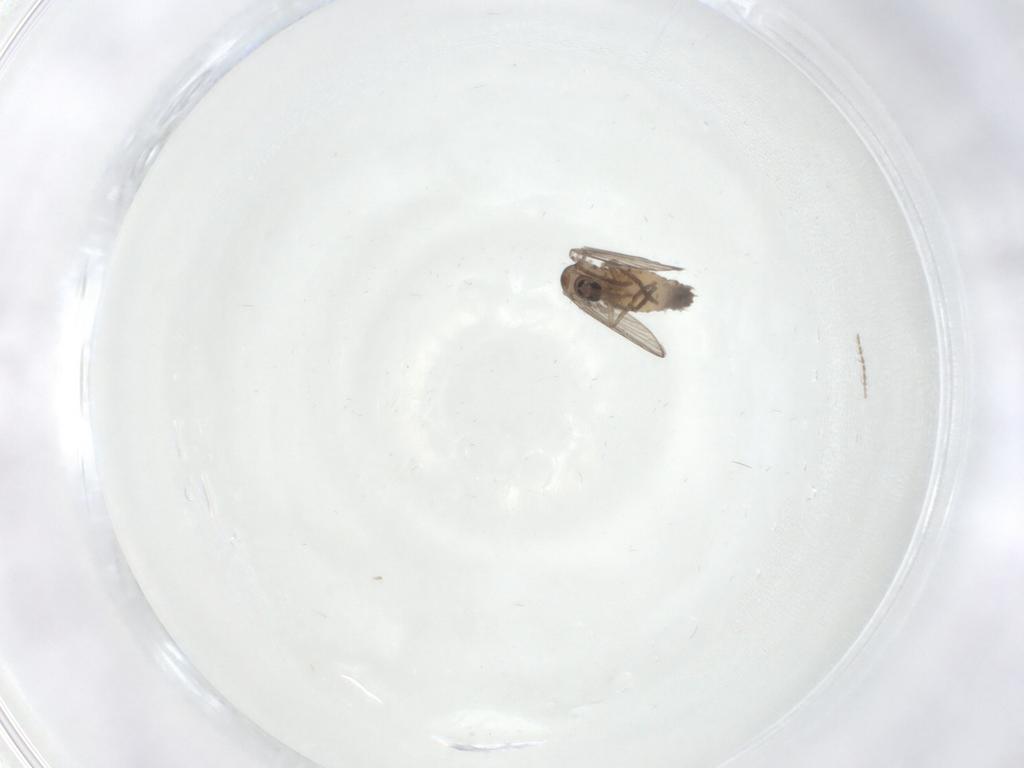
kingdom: Animalia
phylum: Arthropoda
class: Insecta
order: Diptera
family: Psychodidae
